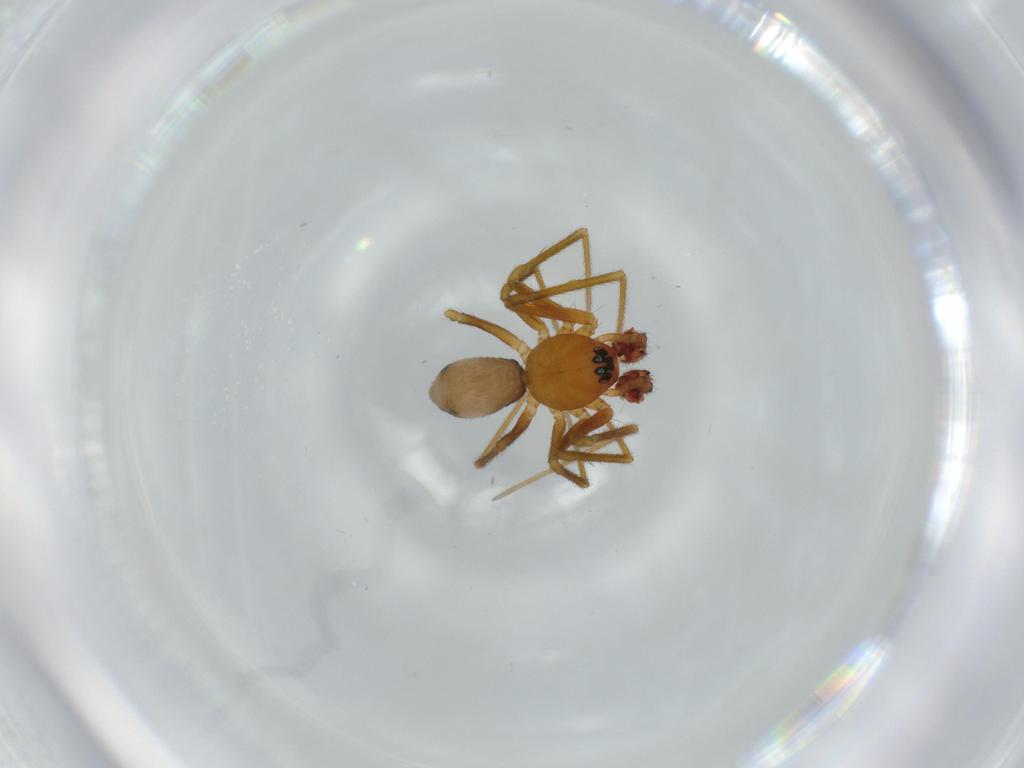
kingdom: Animalia
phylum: Arthropoda
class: Arachnida
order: Araneae
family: Linyphiidae
